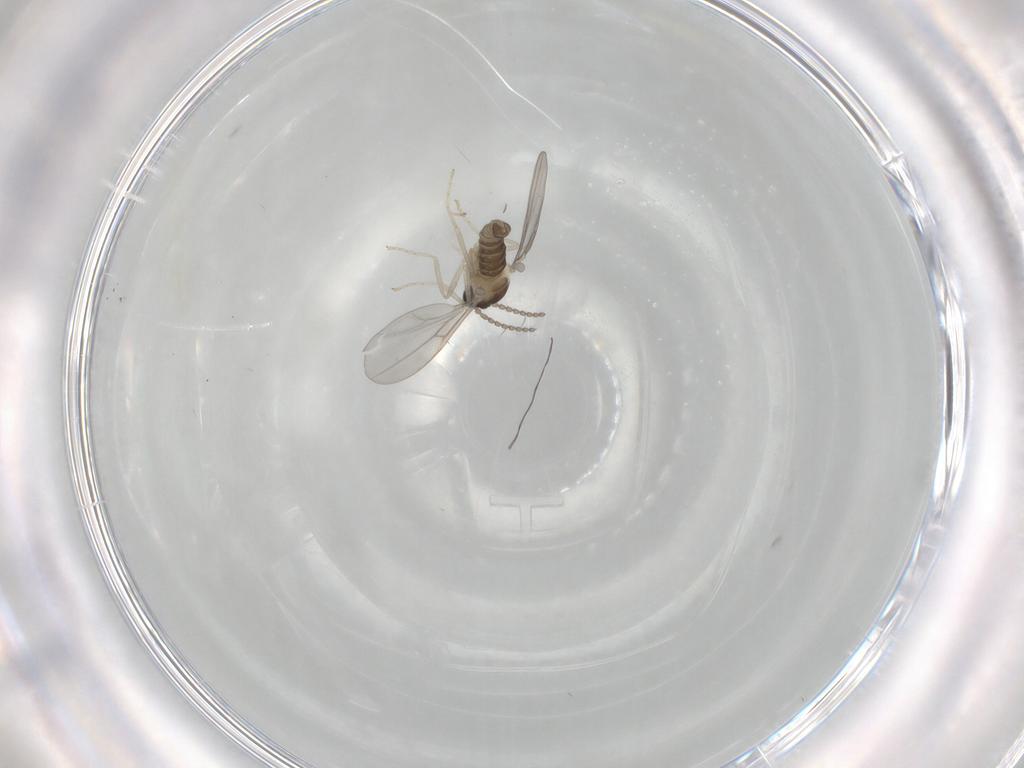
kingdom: Animalia
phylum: Arthropoda
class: Insecta
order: Diptera
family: Cecidomyiidae
